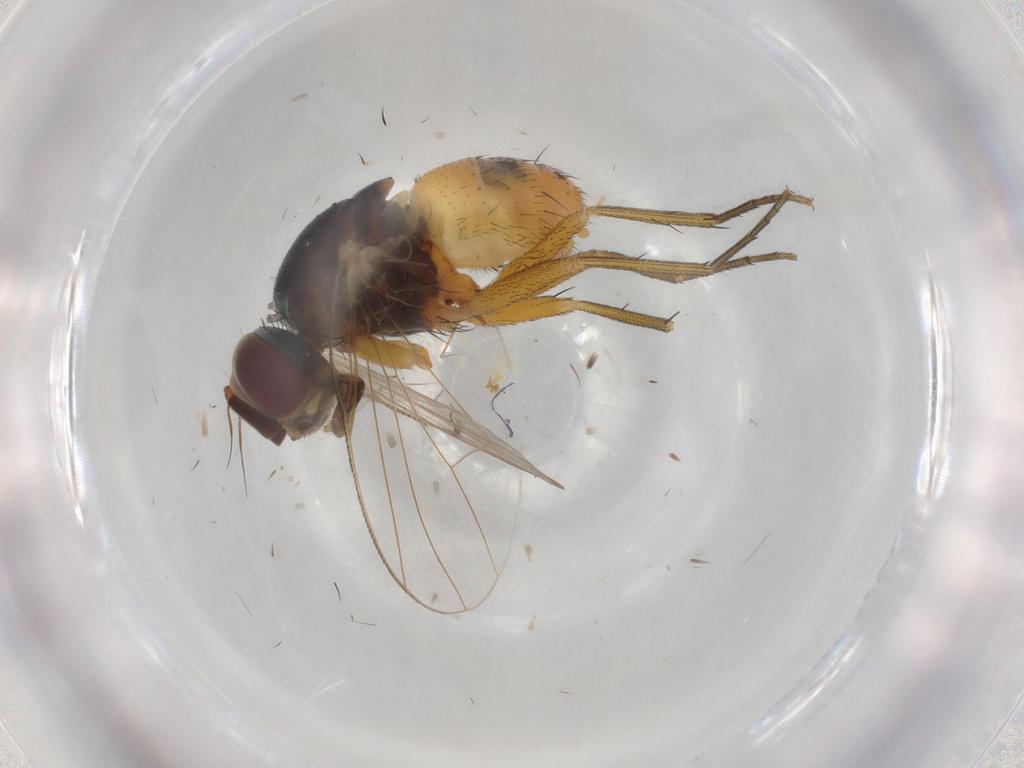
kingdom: Animalia
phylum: Arthropoda
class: Insecta
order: Diptera
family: Muscidae
